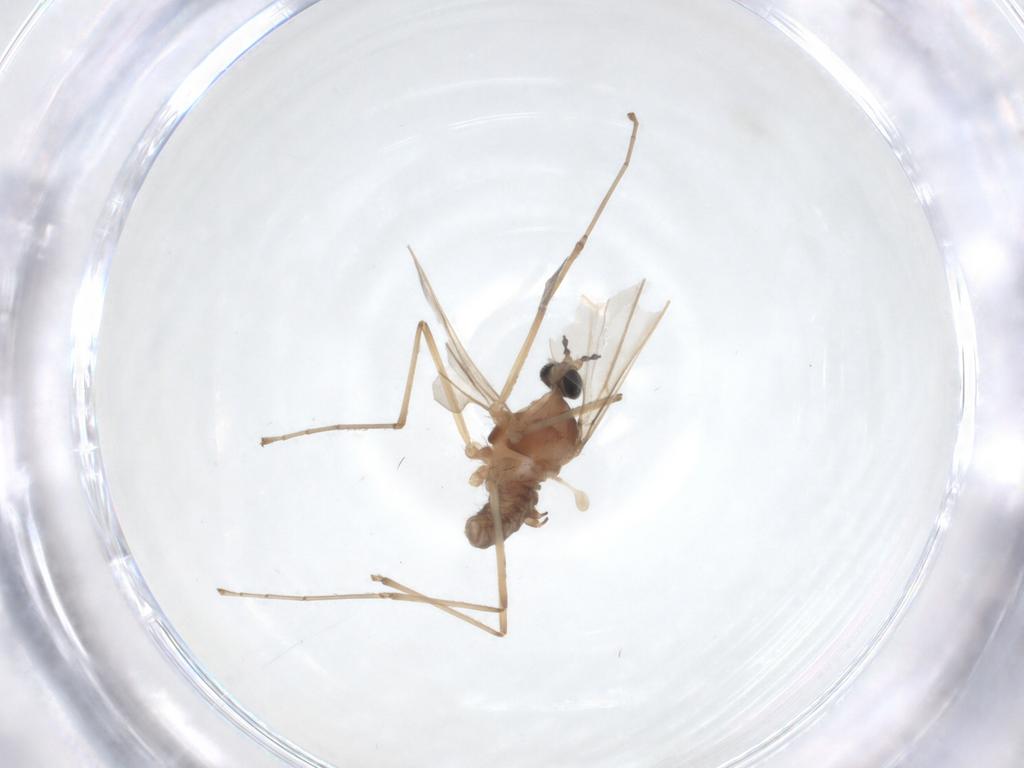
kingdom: Animalia
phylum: Arthropoda
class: Insecta
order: Diptera
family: Cecidomyiidae
